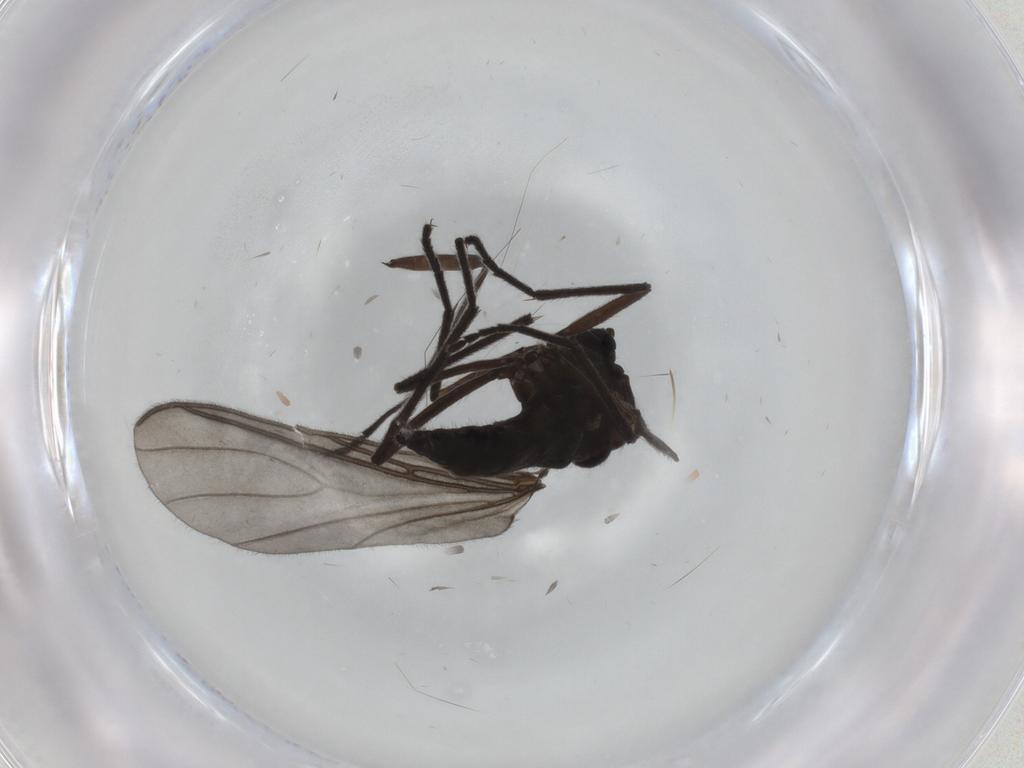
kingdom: Animalia
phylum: Arthropoda
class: Insecta
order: Diptera
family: Sciaridae
